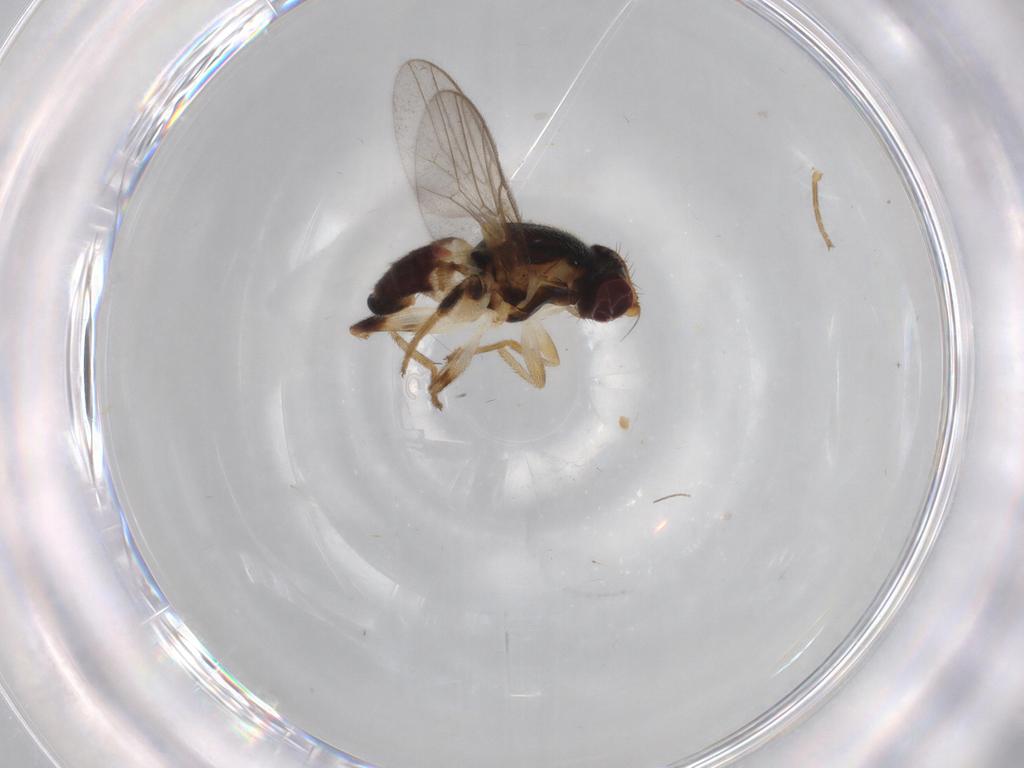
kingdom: Animalia
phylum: Arthropoda
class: Insecta
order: Diptera
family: Chloropidae
